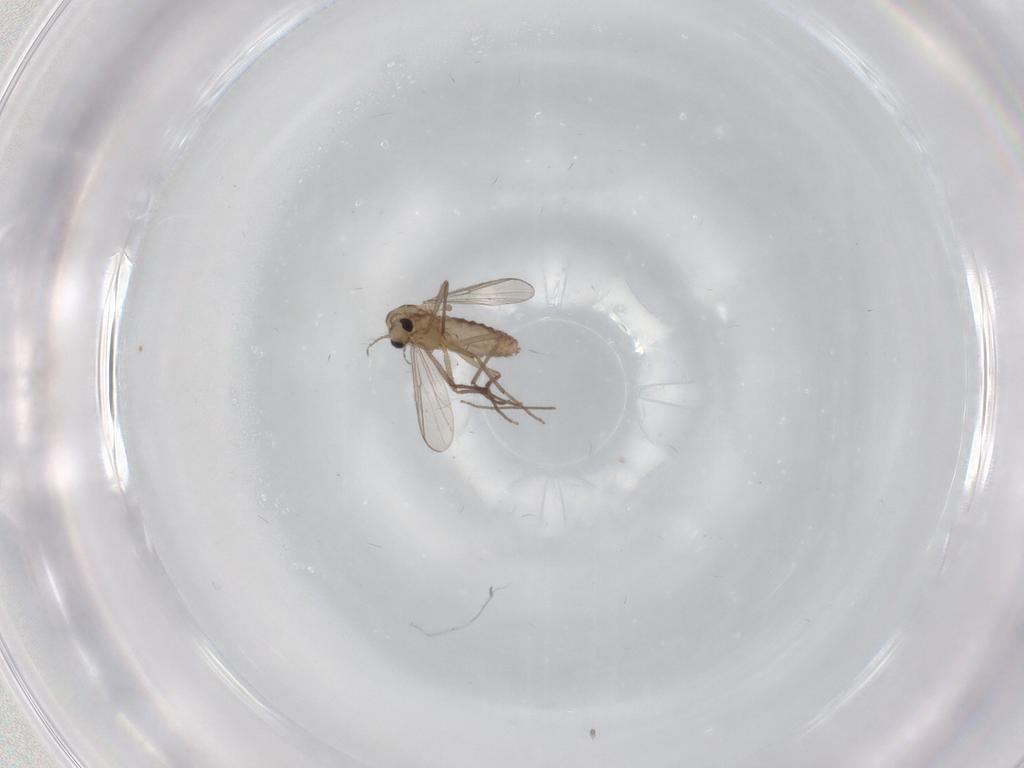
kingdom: Animalia
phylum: Arthropoda
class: Insecta
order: Diptera
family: Chironomidae
